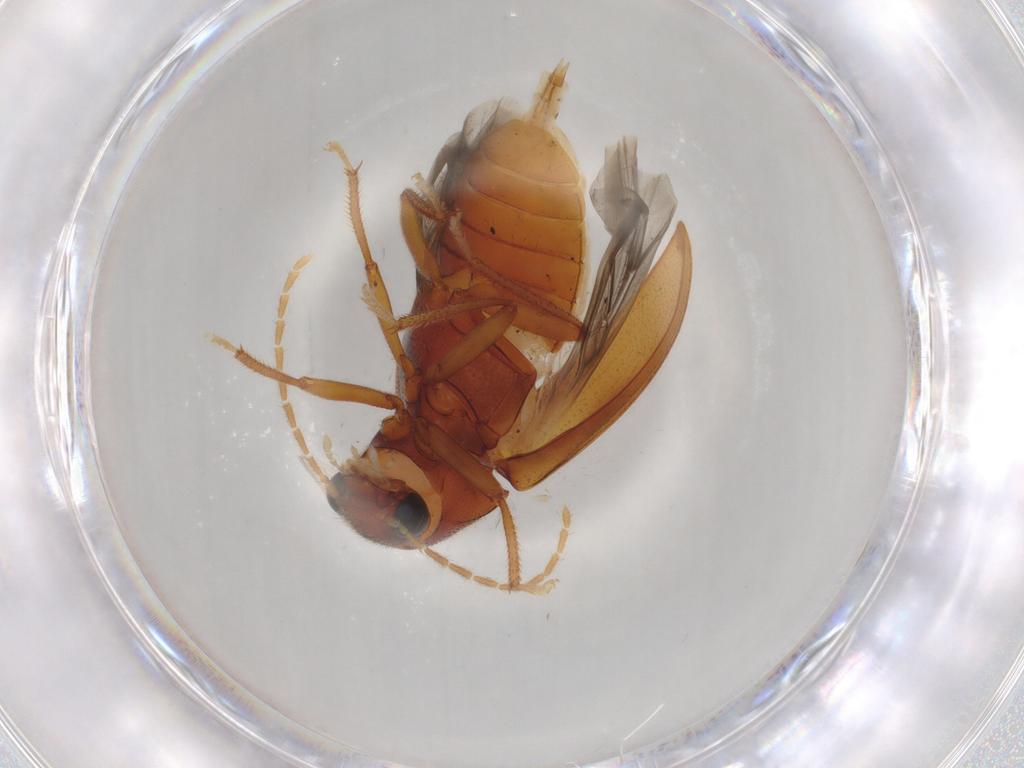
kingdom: Animalia
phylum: Arthropoda
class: Insecta
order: Coleoptera
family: Ptilodactylidae
